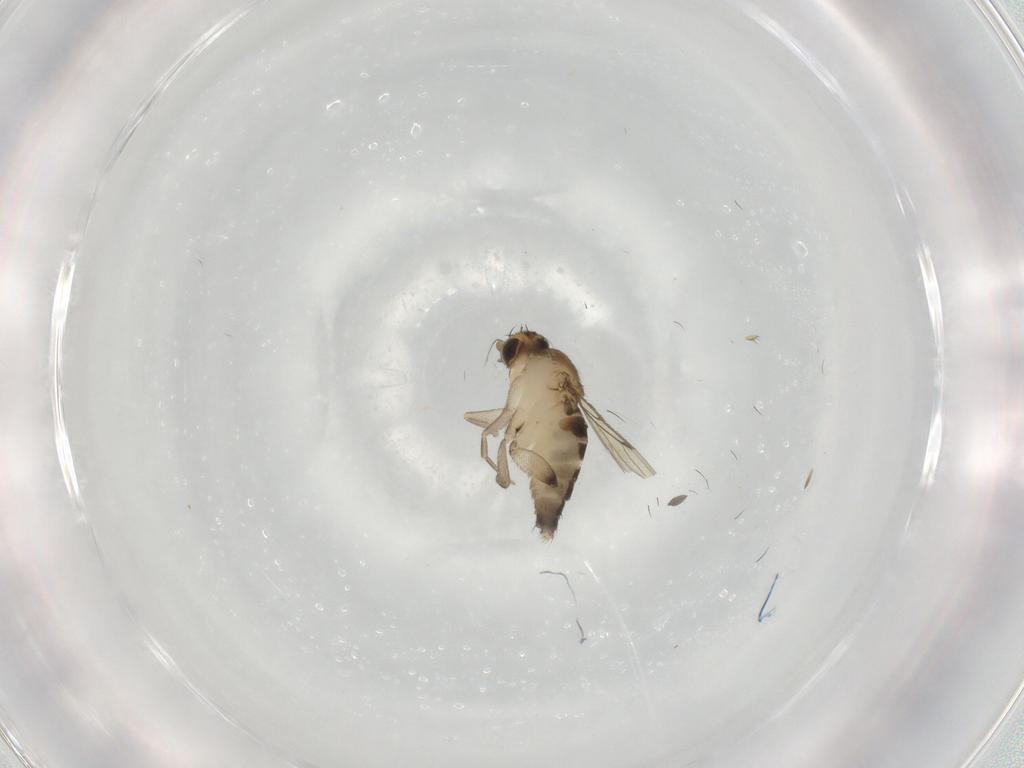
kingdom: Animalia
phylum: Arthropoda
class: Insecta
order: Diptera
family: Phoridae
